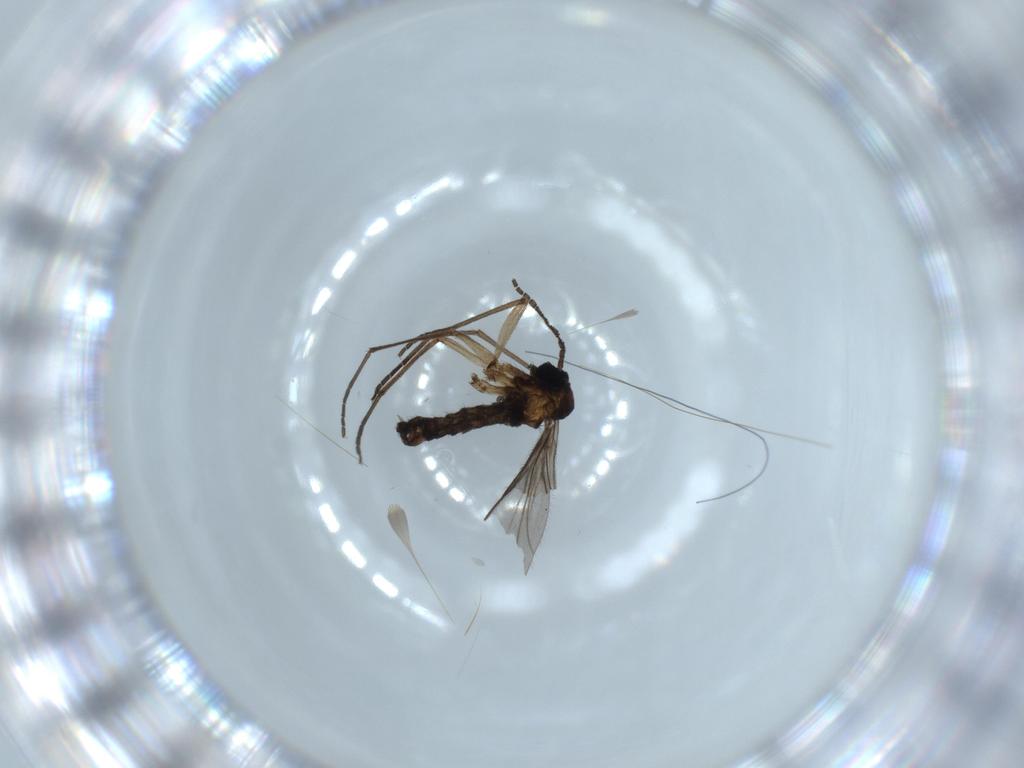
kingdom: Animalia
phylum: Arthropoda
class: Insecta
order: Diptera
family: Sciaridae
